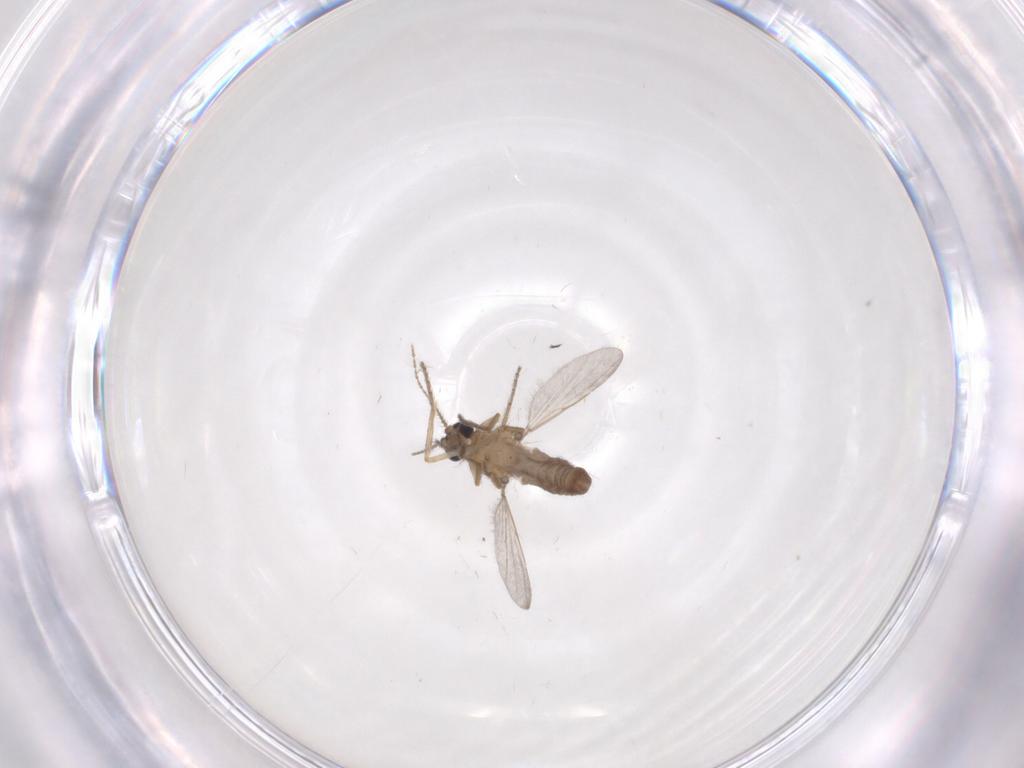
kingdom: Animalia
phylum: Arthropoda
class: Insecta
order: Diptera
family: Ceratopogonidae
